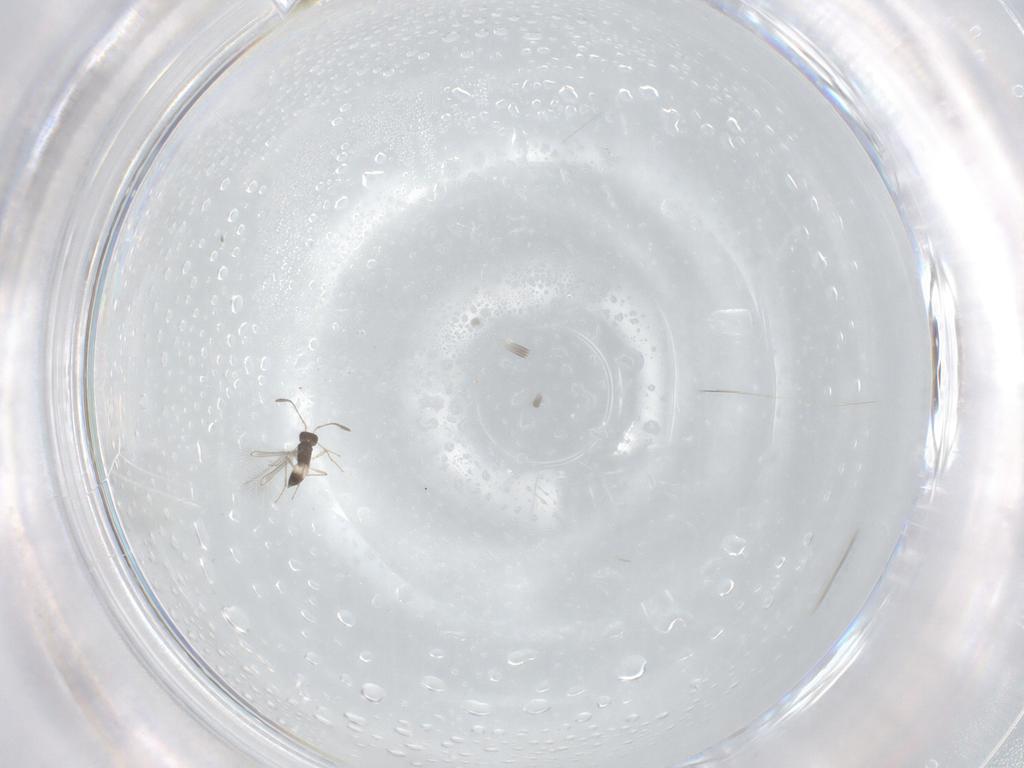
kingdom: Animalia
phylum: Arthropoda
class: Insecta
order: Hymenoptera
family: Mymaridae
